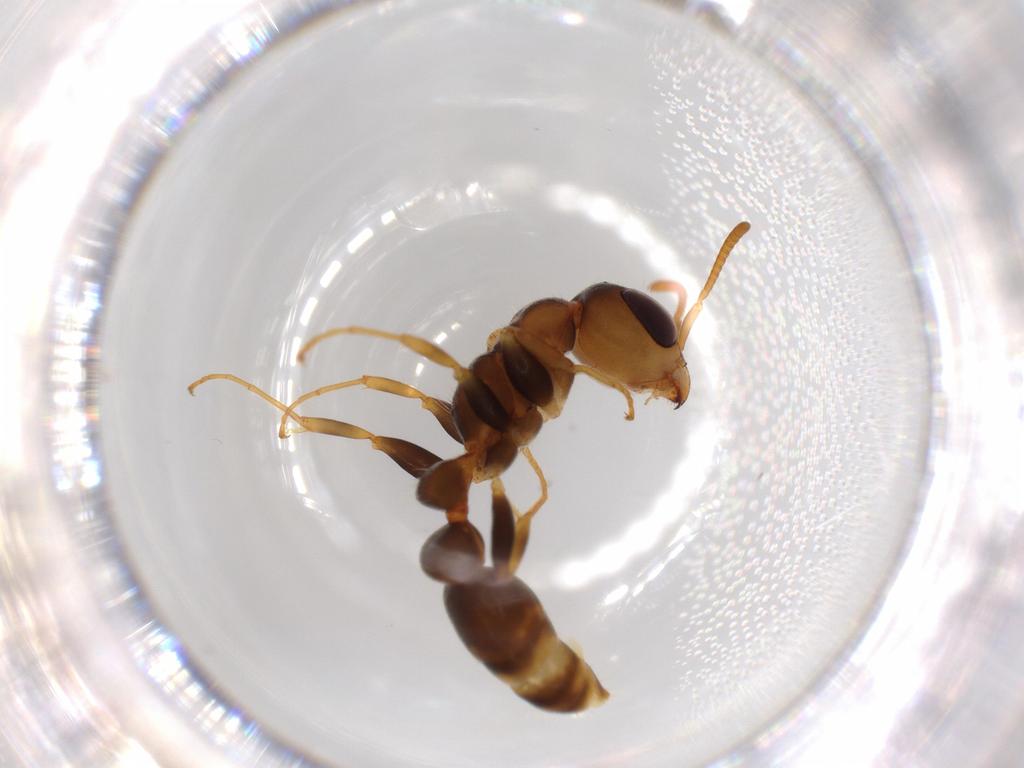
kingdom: Animalia
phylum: Arthropoda
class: Insecta
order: Hymenoptera
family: Formicidae
